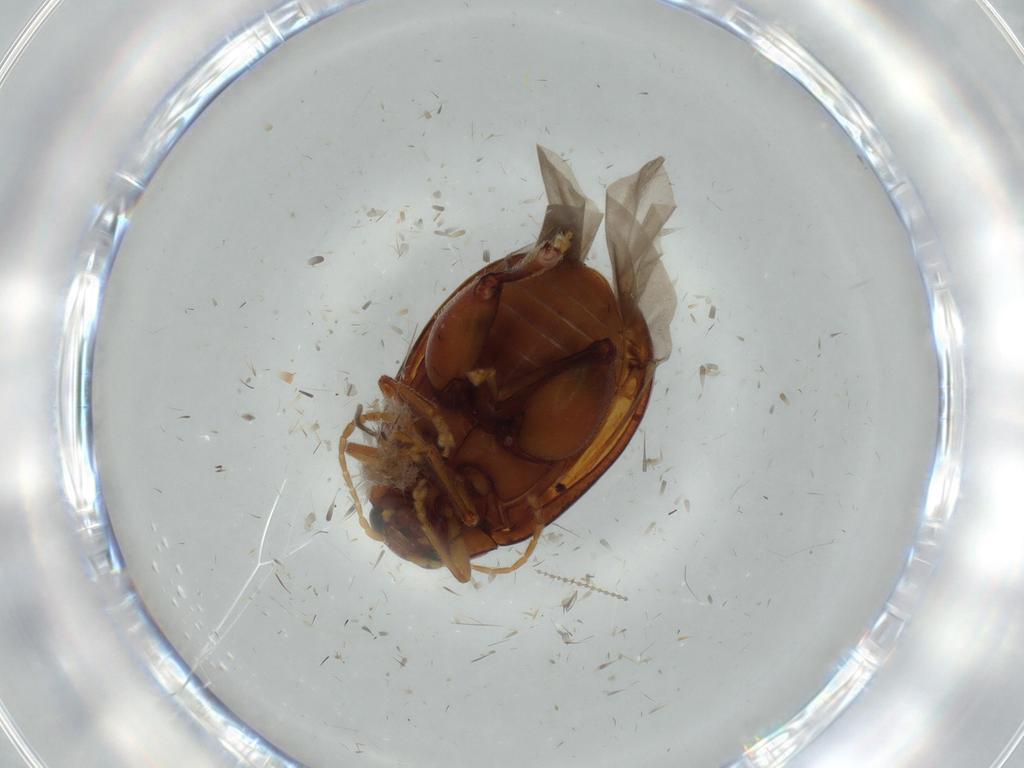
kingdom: Animalia
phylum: Arthropoda
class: Insecta
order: Coleoptera
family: Curculionidae
